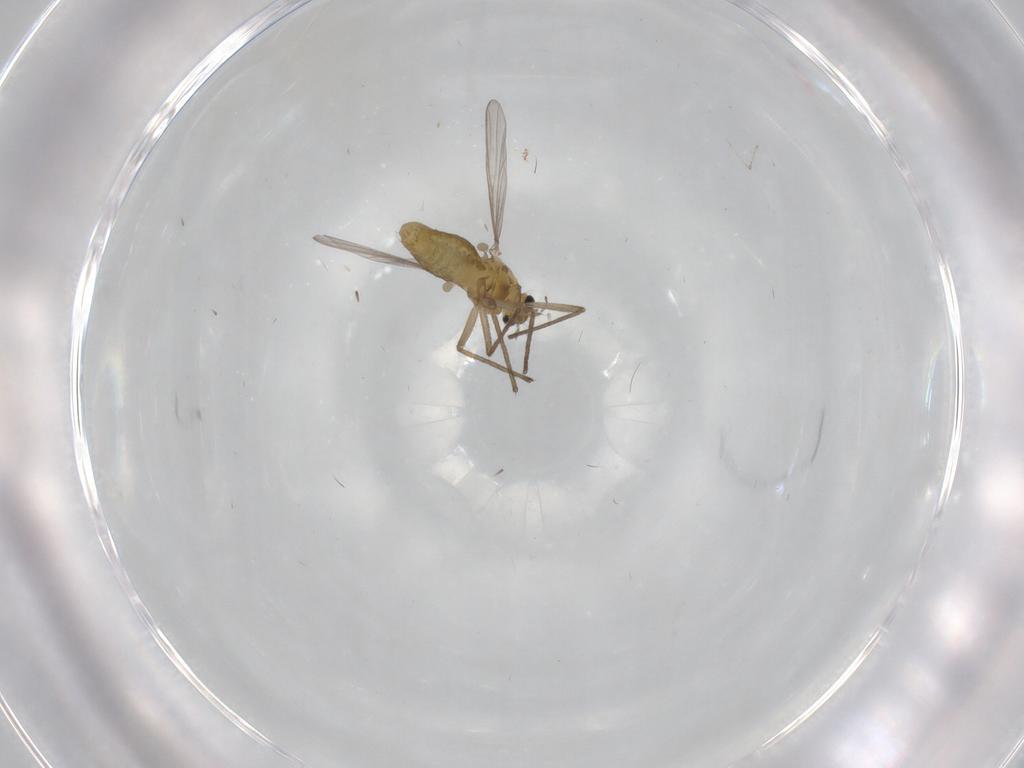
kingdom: Animalia
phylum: Arthropoda
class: Insecta
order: Diptera
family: Chironomidae
